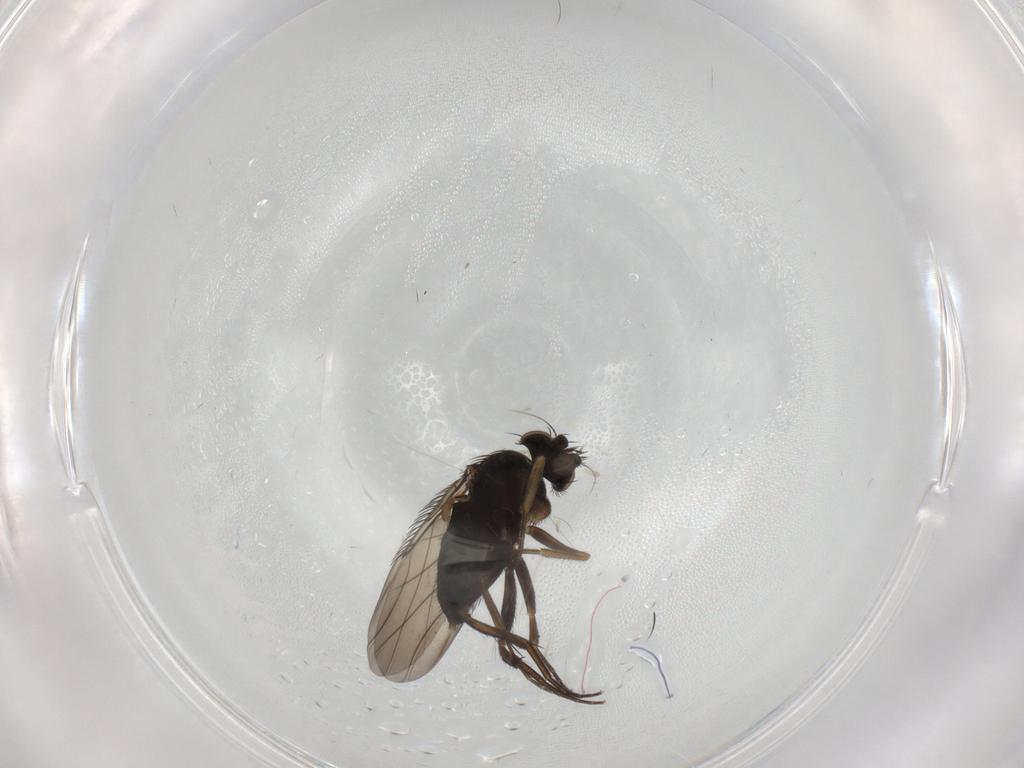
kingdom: Animalia
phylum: Arthropoda
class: Insecta
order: Diptera
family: Phoridae
